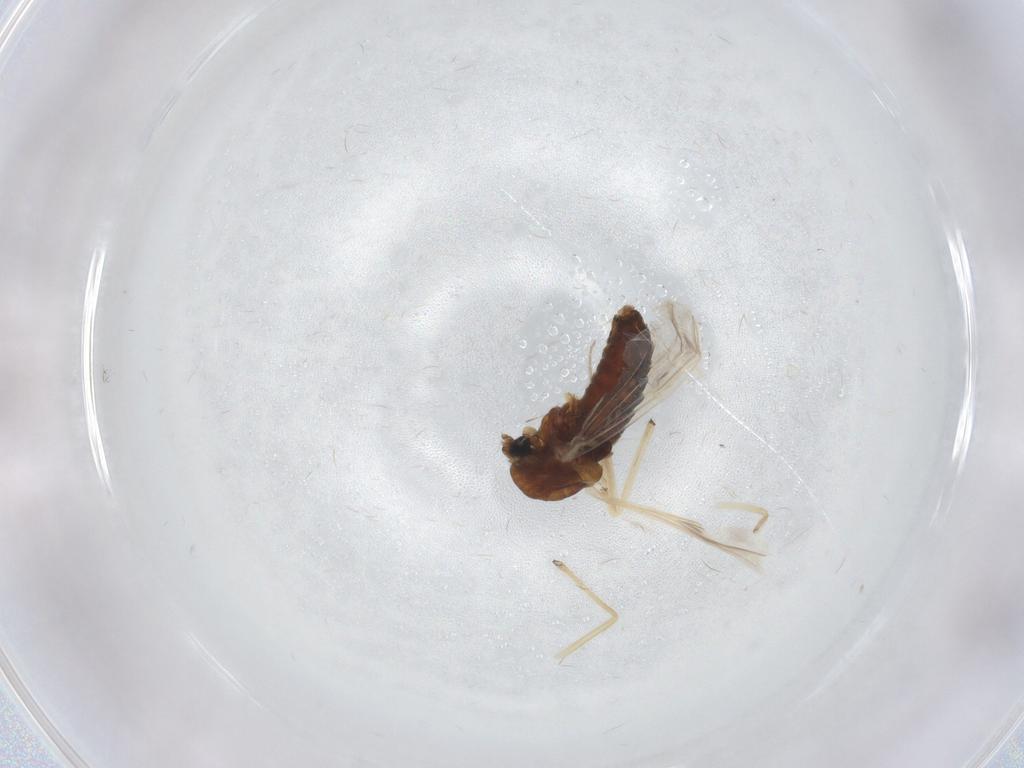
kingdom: Animalia
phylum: Arthropoda
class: Insecta
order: Diptera
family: Chironomidae
